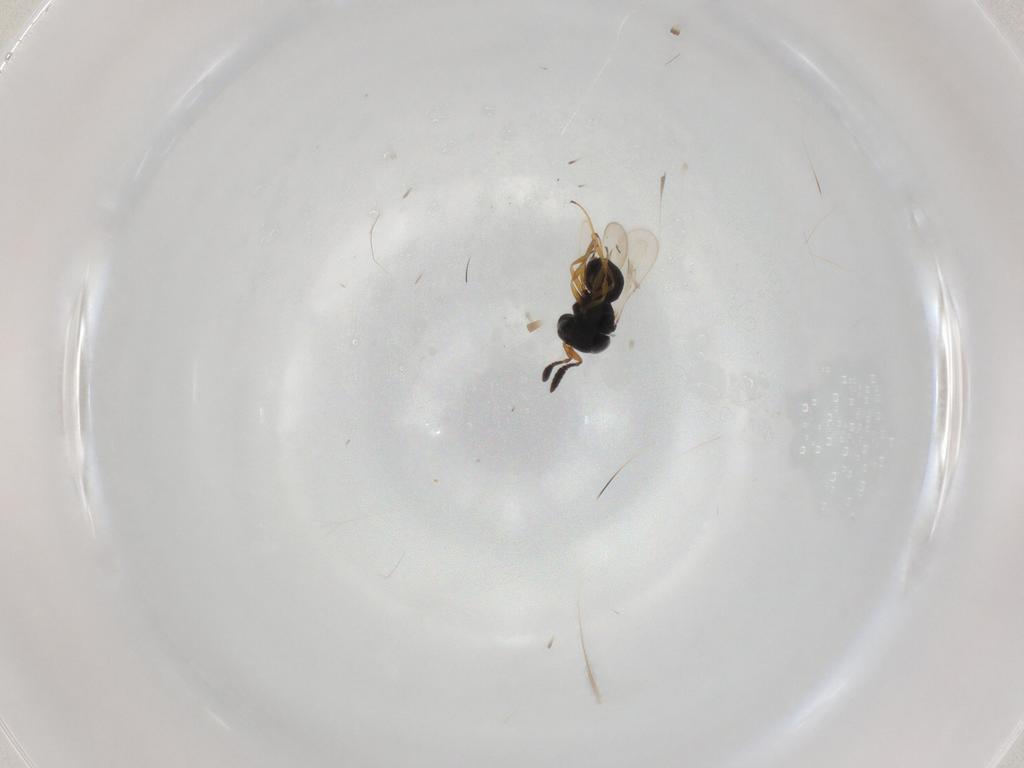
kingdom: Animalia
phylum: Arthropoda
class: Insecta
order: Hymenoptera
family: Scelionidae
